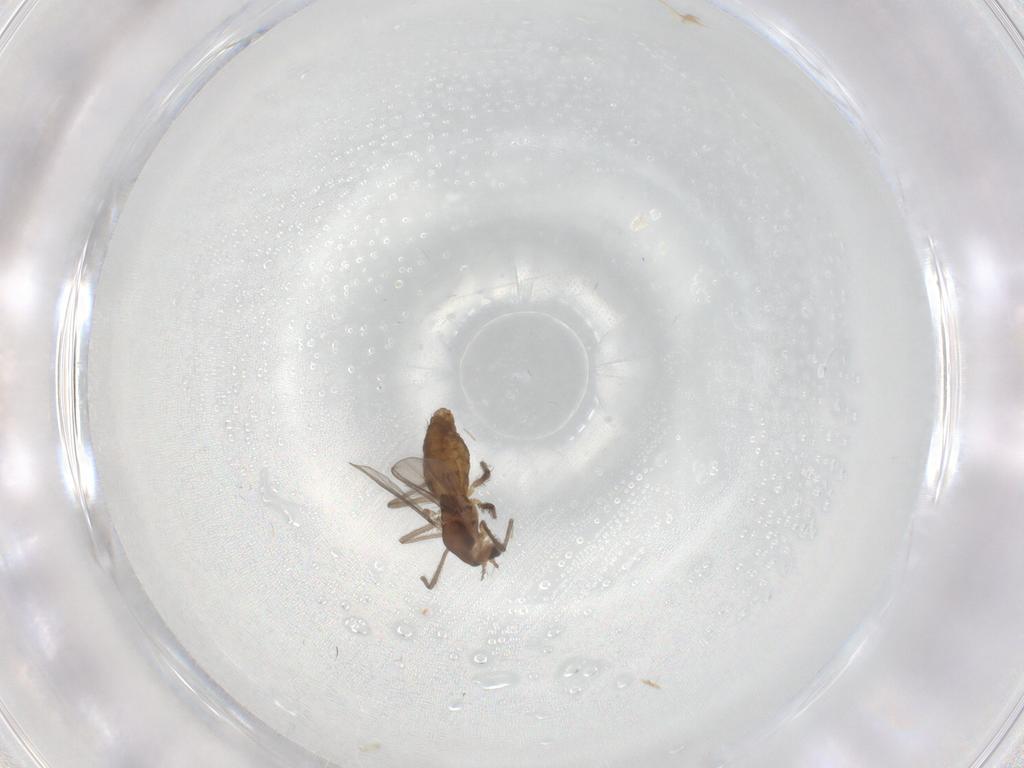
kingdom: Animalia
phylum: Arthropoda
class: Insecta
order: Diptera
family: Chironomidae
